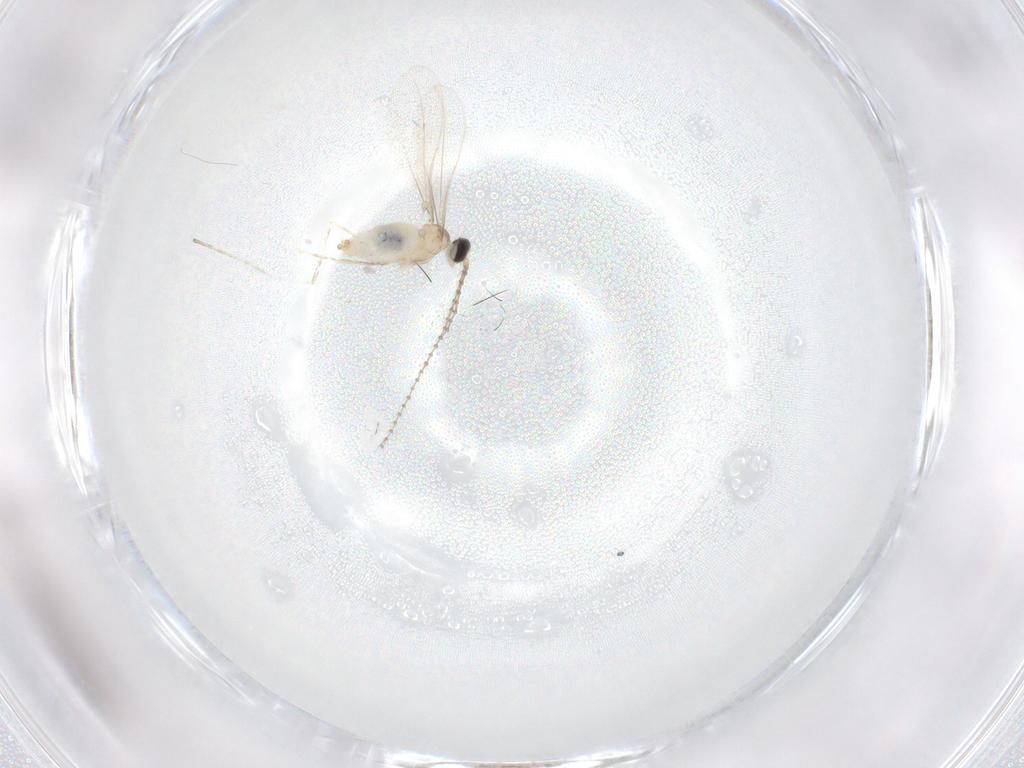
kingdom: Animalia
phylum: Arthropoda
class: Insecta
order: Diptera
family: Cecidomyiidae
